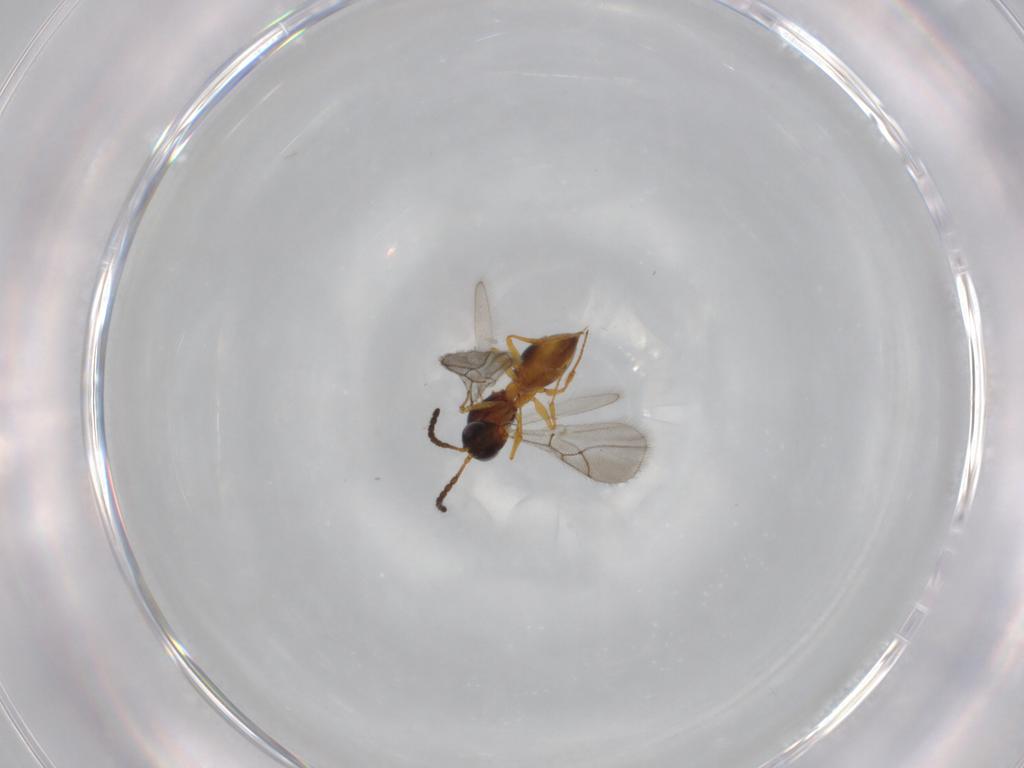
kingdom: Animalia
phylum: Arthropoda
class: Insecta
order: Hymenoptera
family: Figitidae
